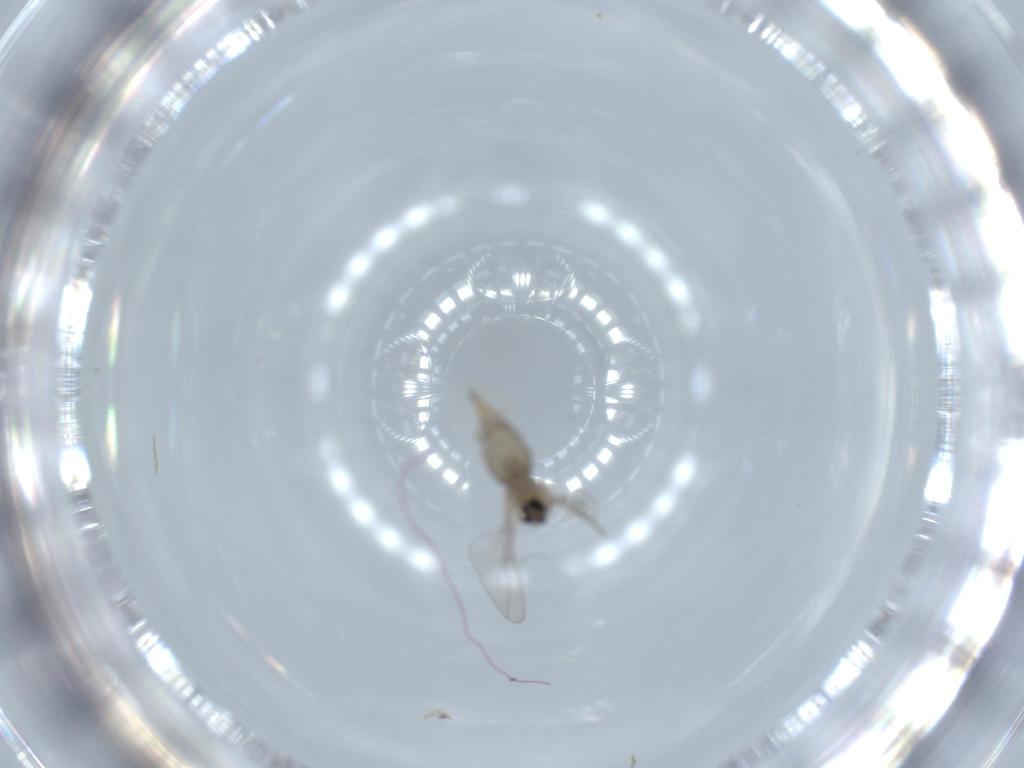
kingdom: Animalia
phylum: Arthropoda
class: Insecta
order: Diptera
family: Cecidomyiidae
